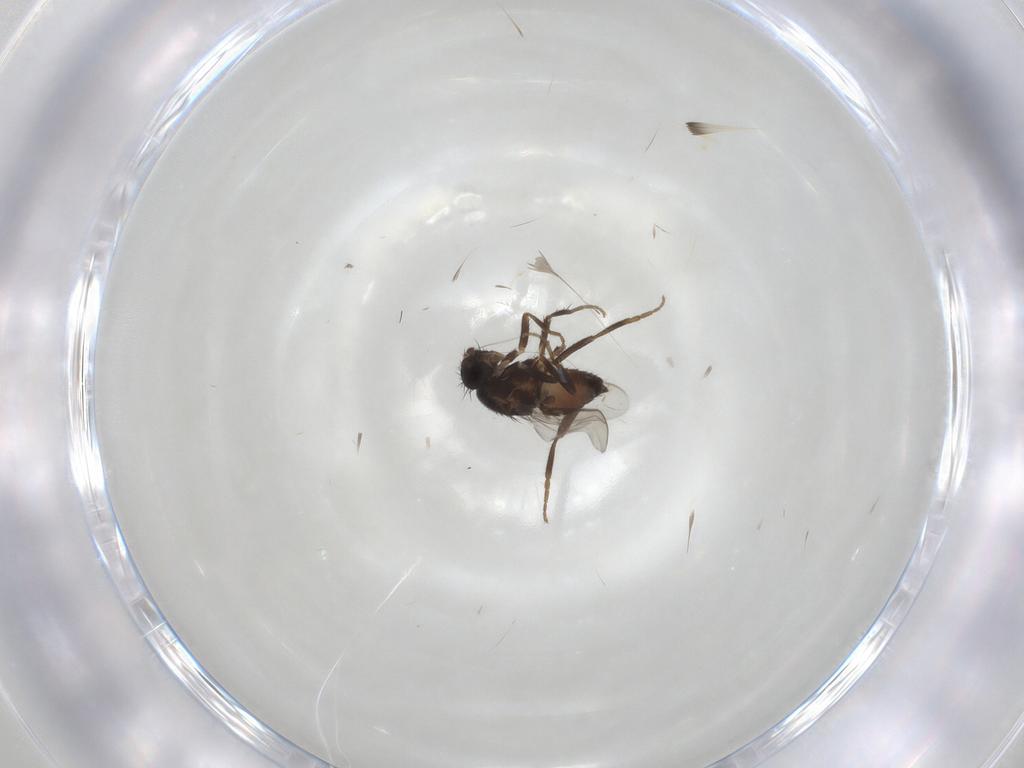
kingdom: Animalia
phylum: Arthropoda
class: Insecta
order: Diptera
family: Sphaeroceridae
